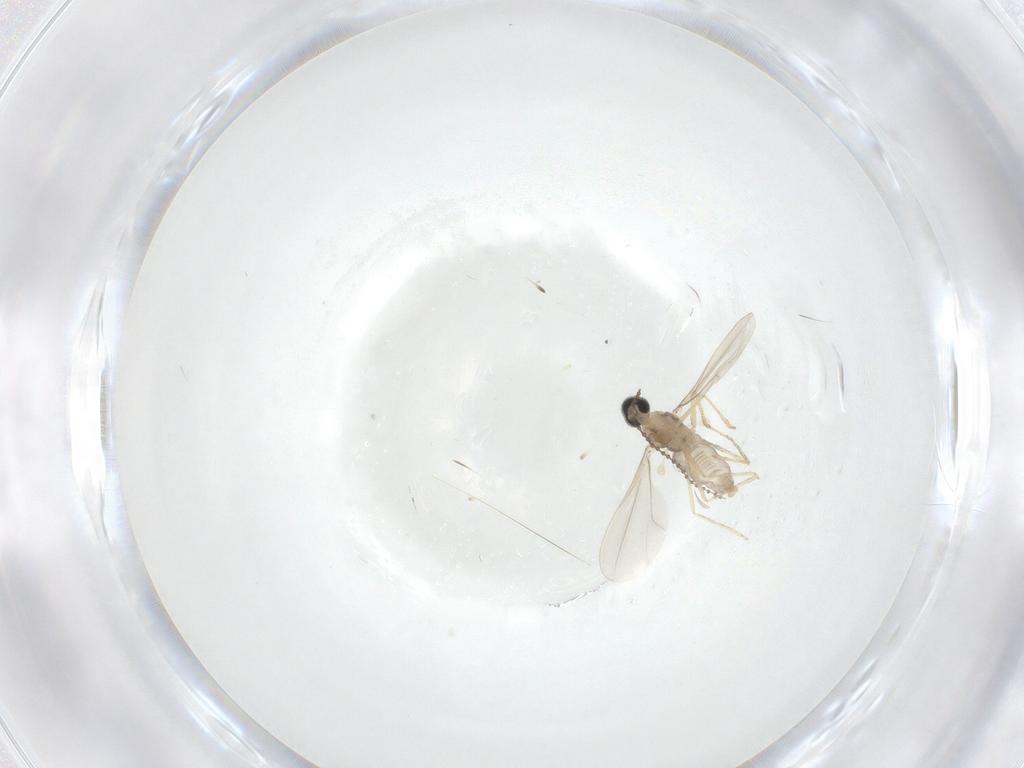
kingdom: Animalia
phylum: Arthropoda
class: Insecta
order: Diptera
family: Cecidomyiidae
